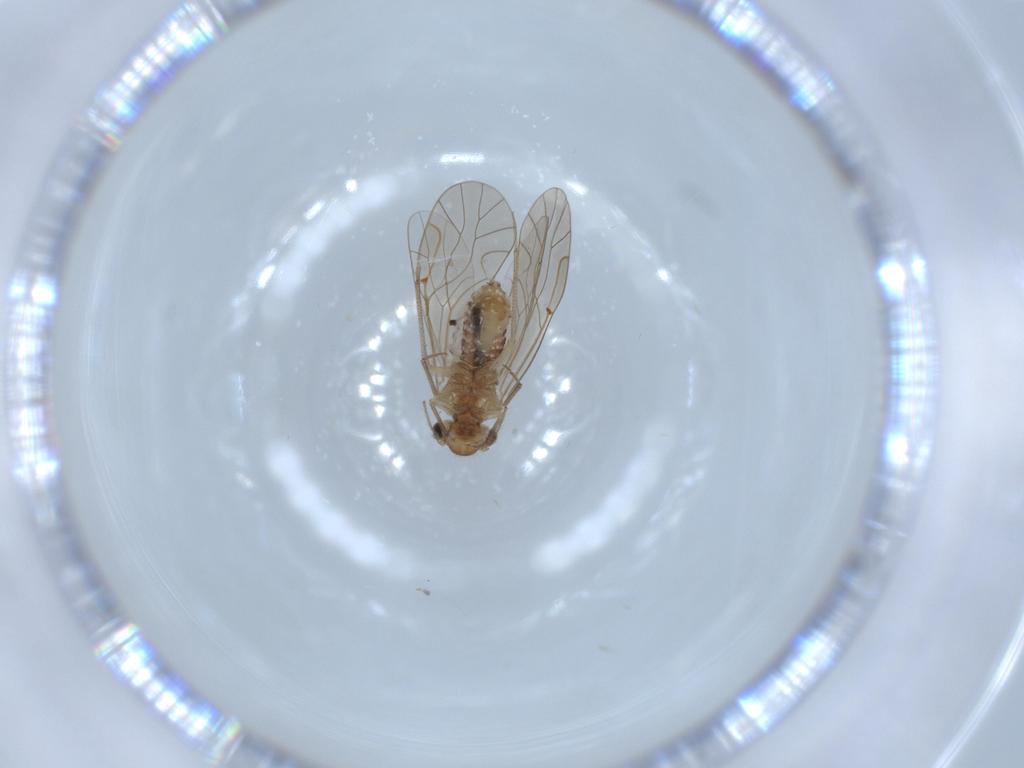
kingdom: Animalia
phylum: Arthropoda
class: Insecta
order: Psocodea
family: Lachesillidae
